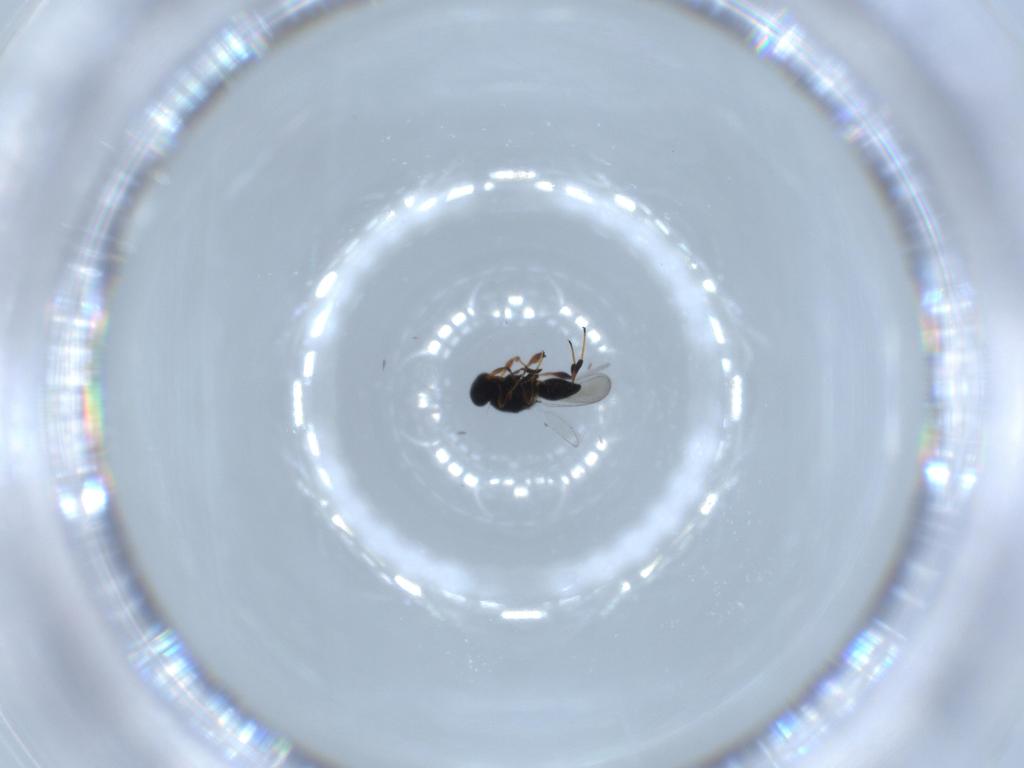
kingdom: Animalia
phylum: Arthropoda
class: Insecta
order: Hymenoptera
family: Platygastridae
